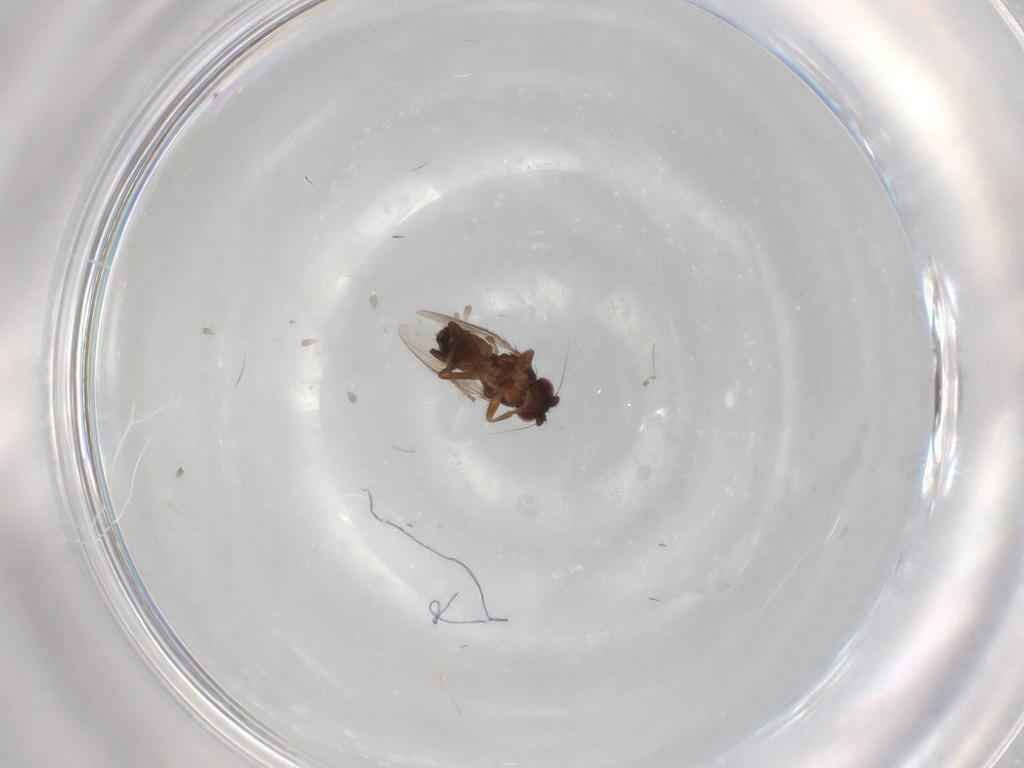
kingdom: Animalia
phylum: Arthropoda
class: Insecta
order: Diptera
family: Sphaeroceridae
